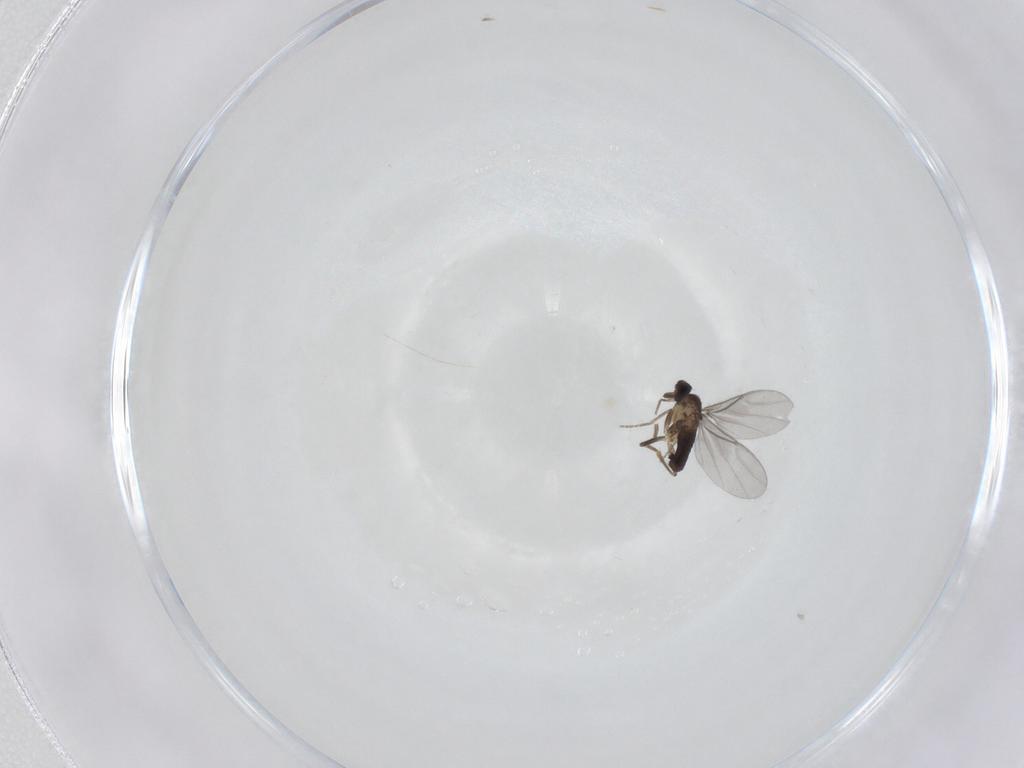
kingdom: Animalia
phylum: Arthropoda
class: Insecta
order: Diptera
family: Phoridae
